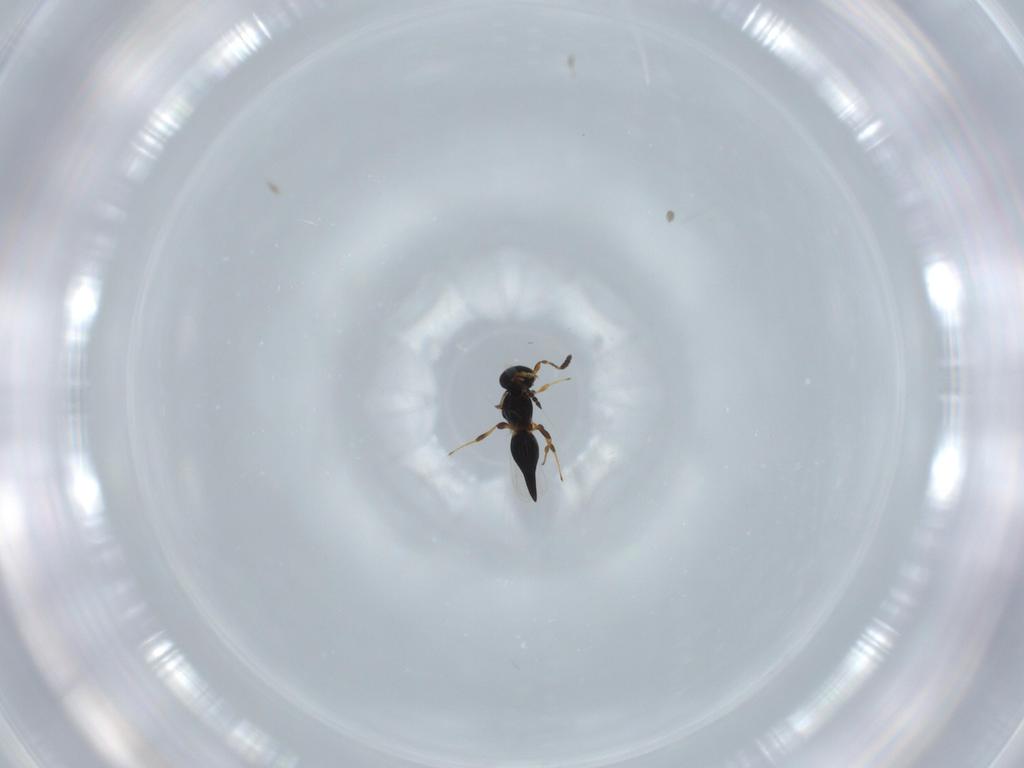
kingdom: Animalia
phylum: Arthropoda
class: Insecta
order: Hymenoptera
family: Platygastridae
